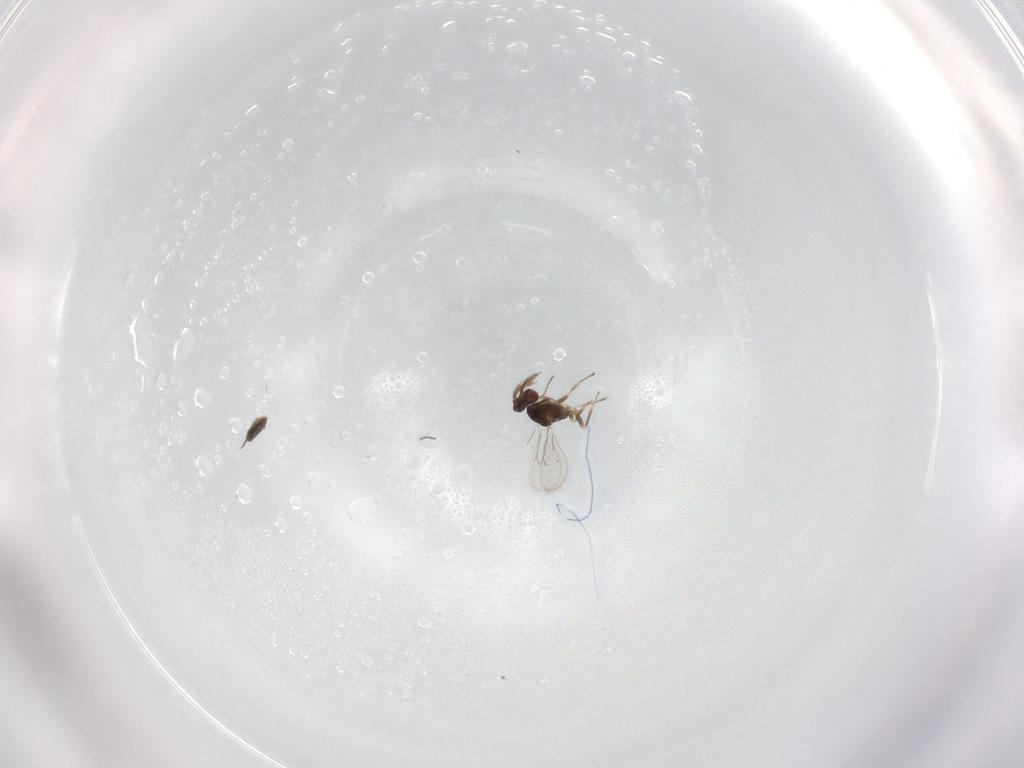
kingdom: Animalia
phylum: Arthropoda
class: Insecta
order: Hymenoptera
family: Eulophidae
